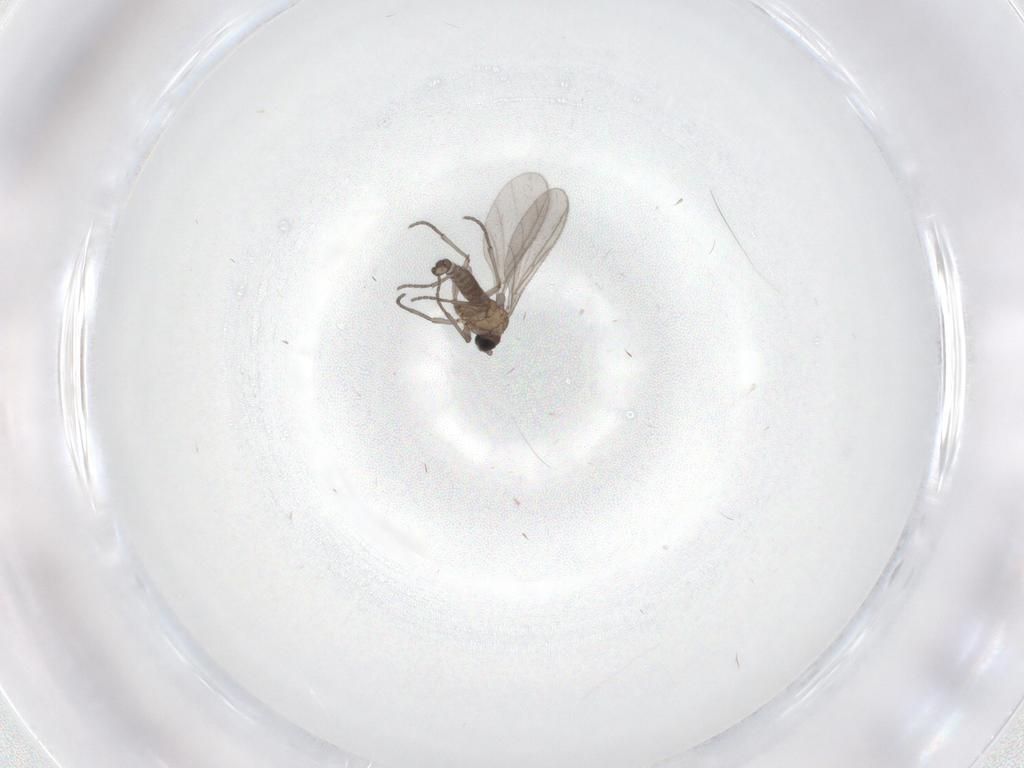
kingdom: Animalia
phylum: Arthropoda
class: Insecta
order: Diptera
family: Sciaridae
